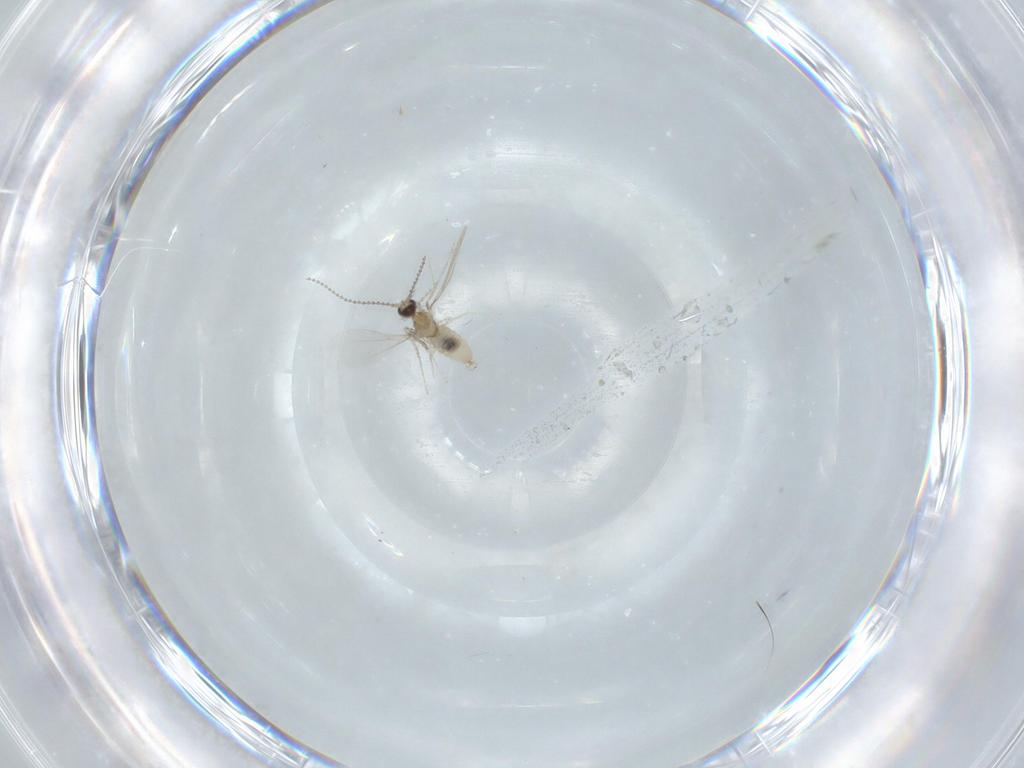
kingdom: Animalia
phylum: Arthropoda
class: Insecta
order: Diptera
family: Cecidomyiidae
